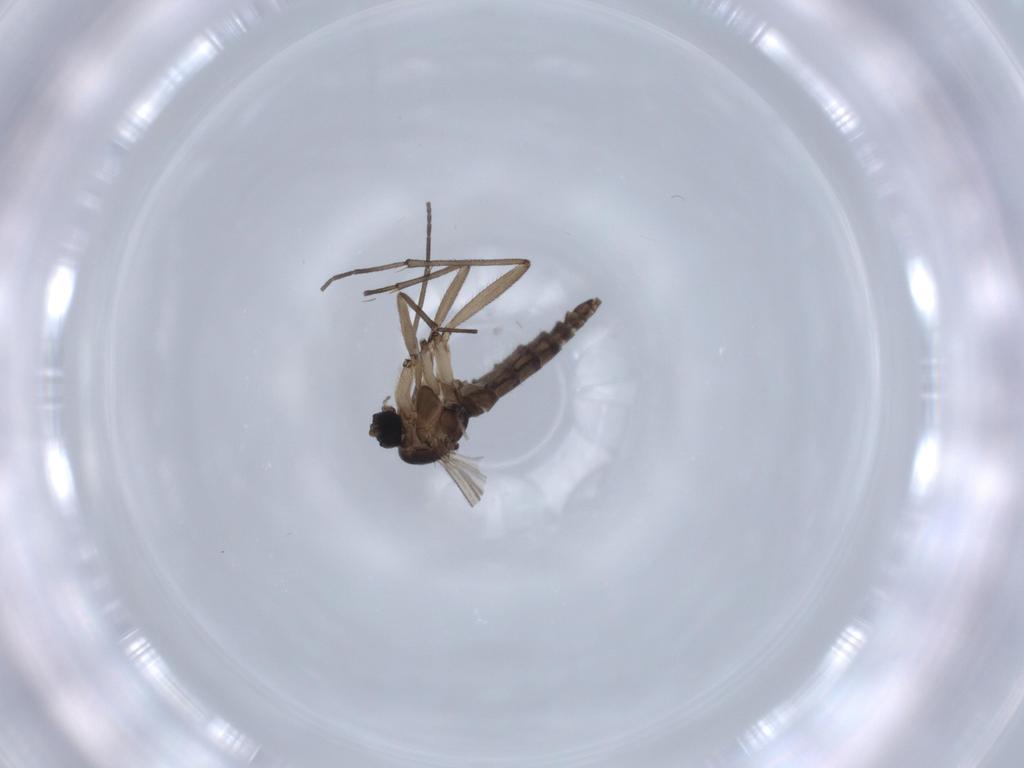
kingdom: Animalia
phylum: Arthropoda
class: Insecta
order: Diptera
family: Sciaridae
